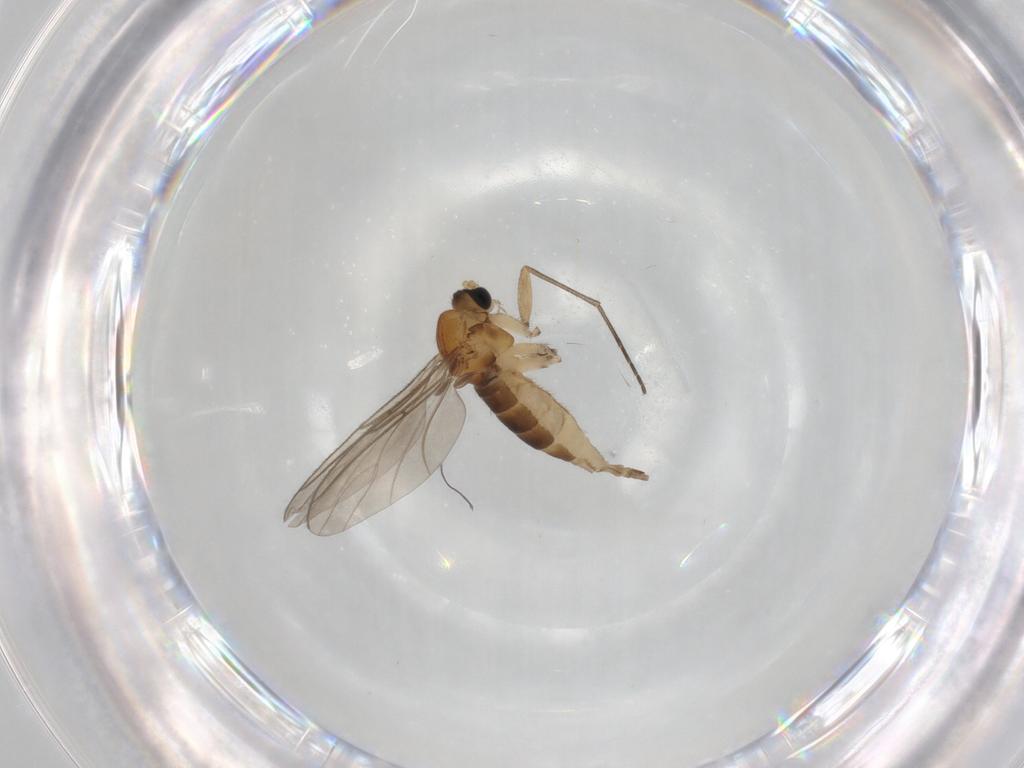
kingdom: Animalia
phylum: Arthropoda
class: Insecta
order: Diptera
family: Sciaridae
